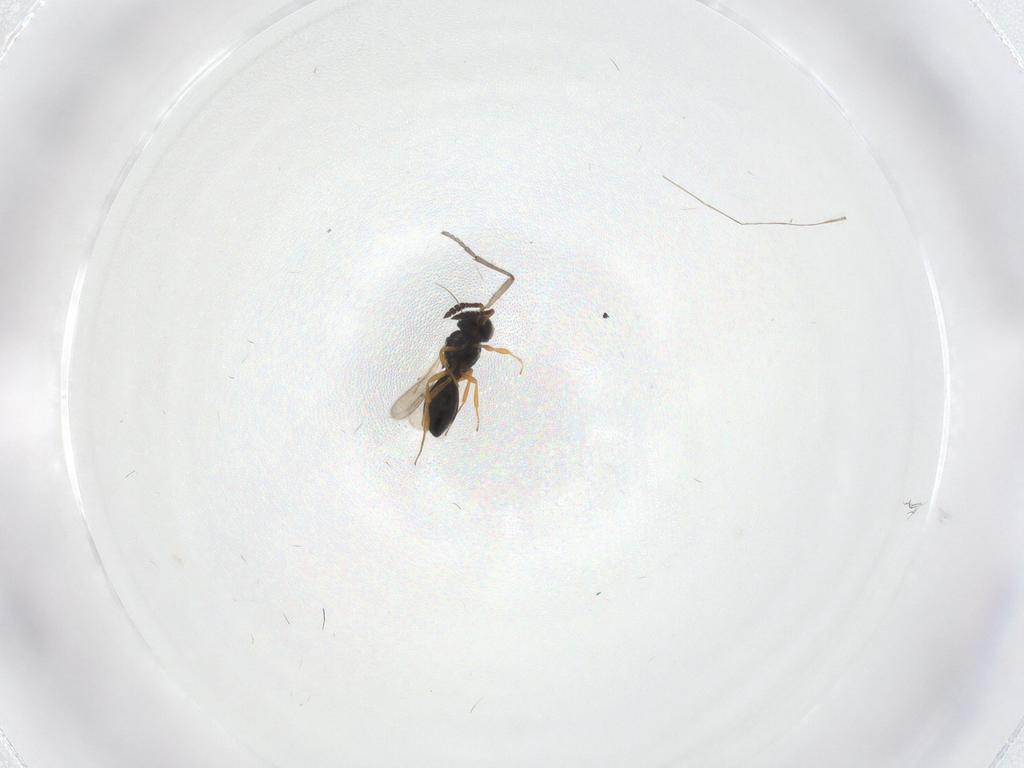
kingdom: Animalia
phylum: Arthropoda
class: Insecta
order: Hymenoptera
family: Scelionidae
